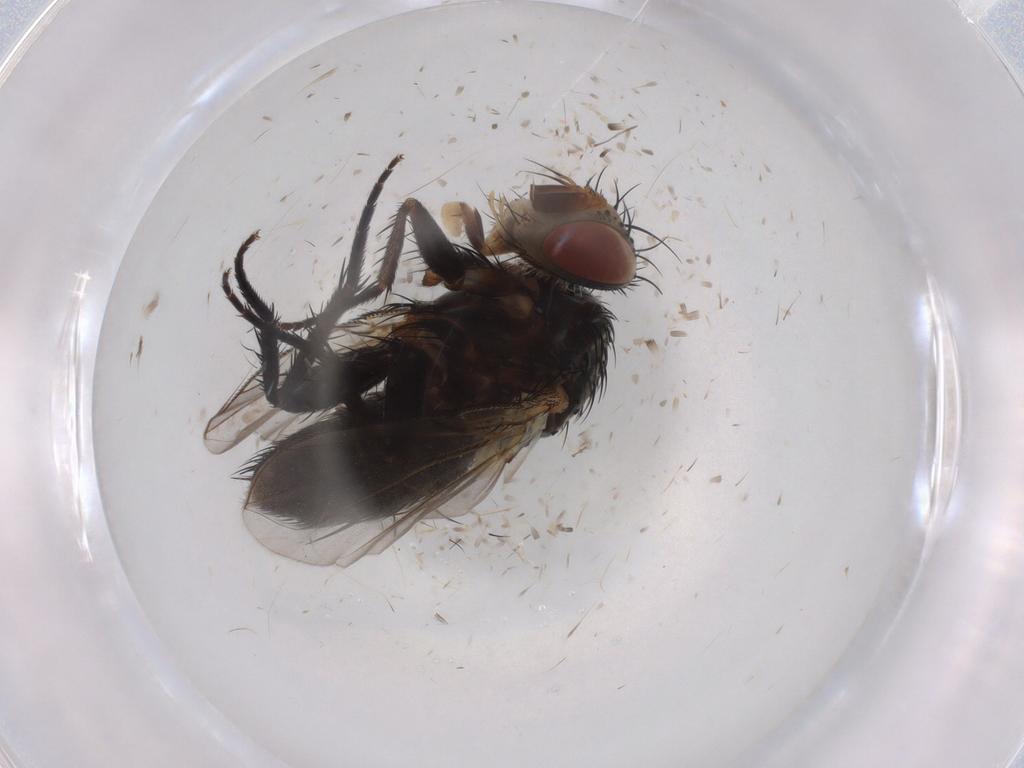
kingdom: Animalia
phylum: Arthropoda
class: Insecta
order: Diptera
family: Tachinidae
